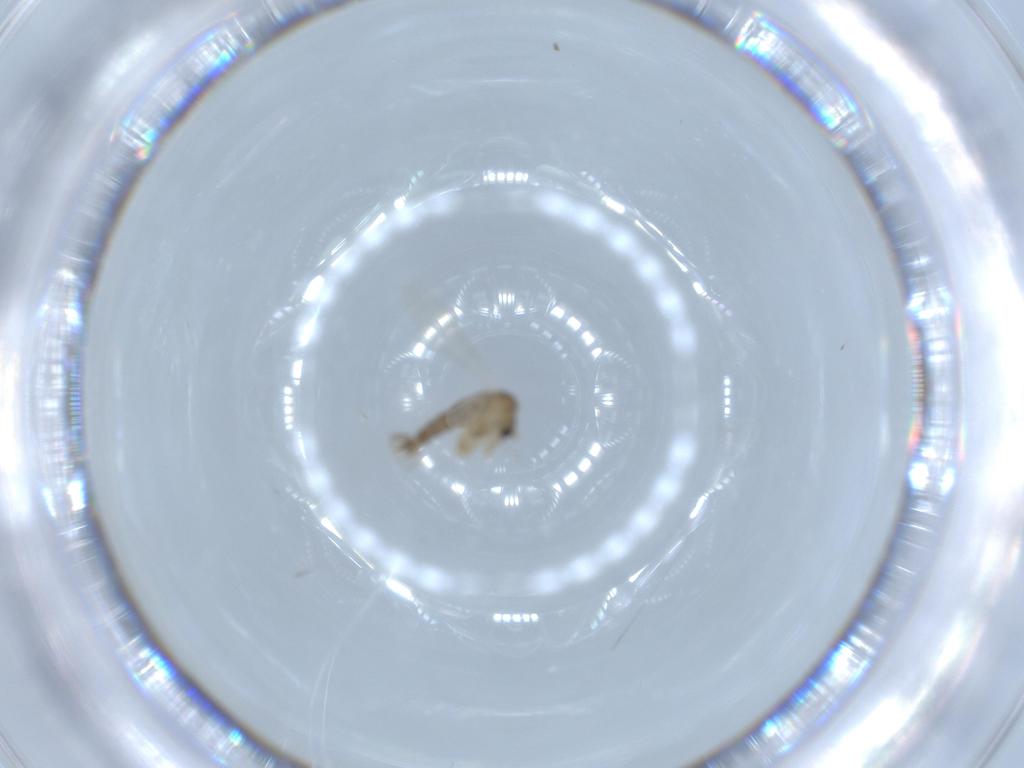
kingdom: Animalia
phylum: Arthropoda
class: Insecta
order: Diptera
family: Psychodidae
